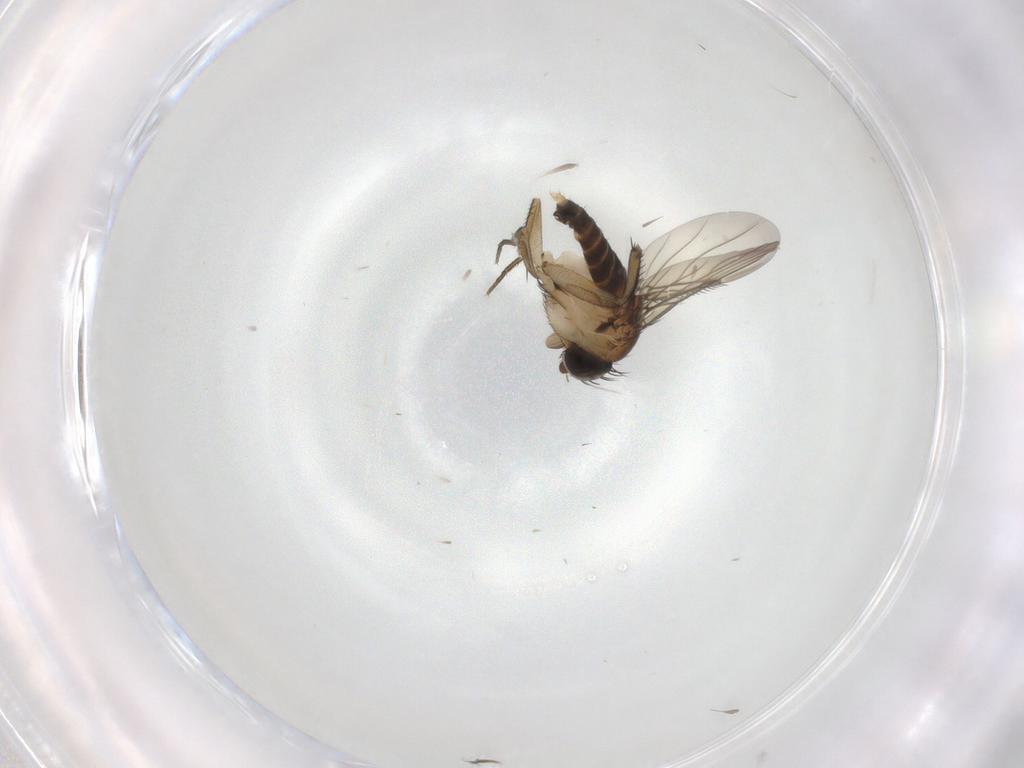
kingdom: Animalia
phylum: Arthropoda
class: Insecta
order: Diptera
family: Phoridae
